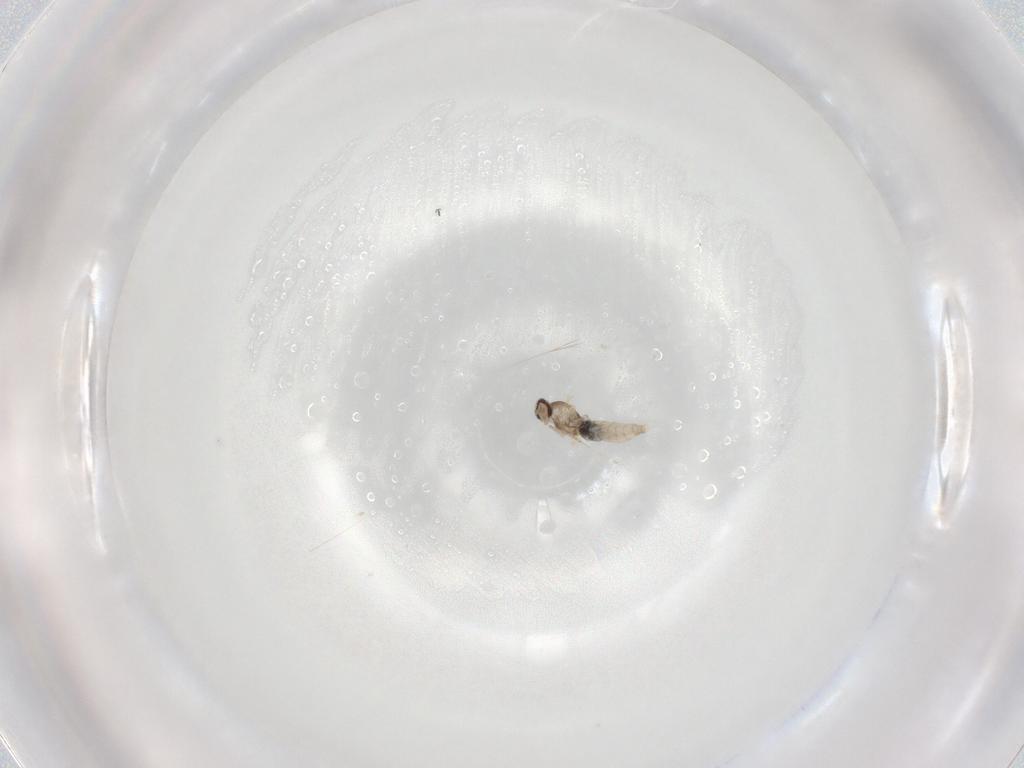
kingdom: Animalia
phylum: Arthropoda
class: Insecta
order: Diptera
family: Cecidomyiidae
